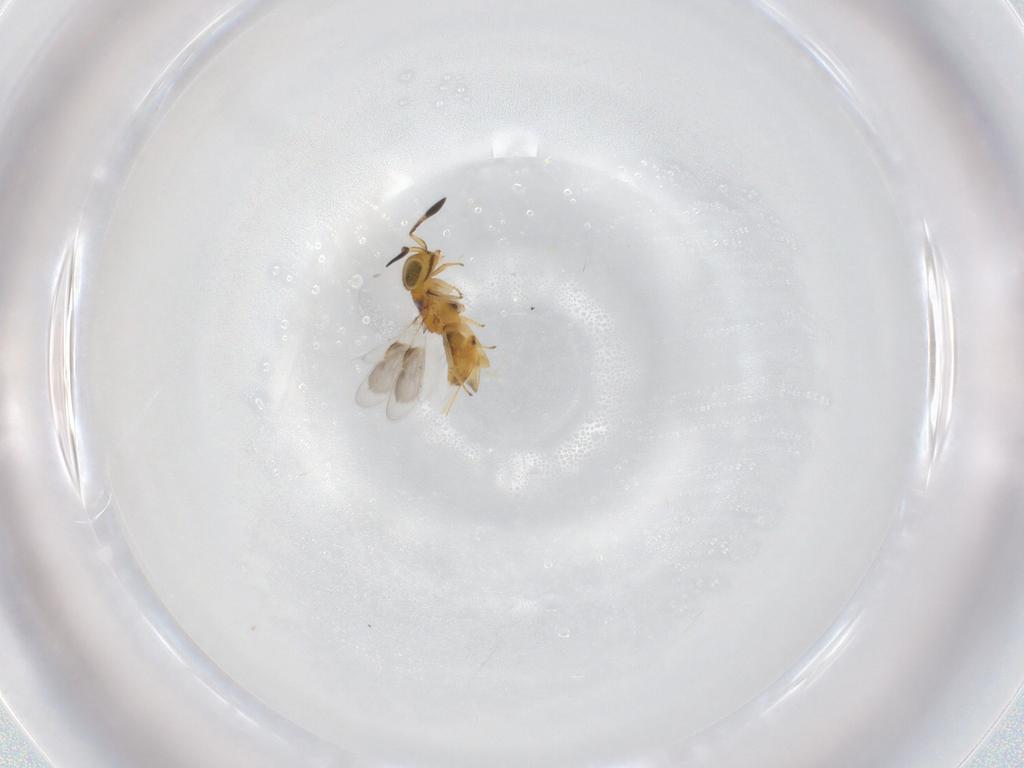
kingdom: Animalia
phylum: Arthropoda
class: Insecta
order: Hymenoptera
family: Encyrtidae
